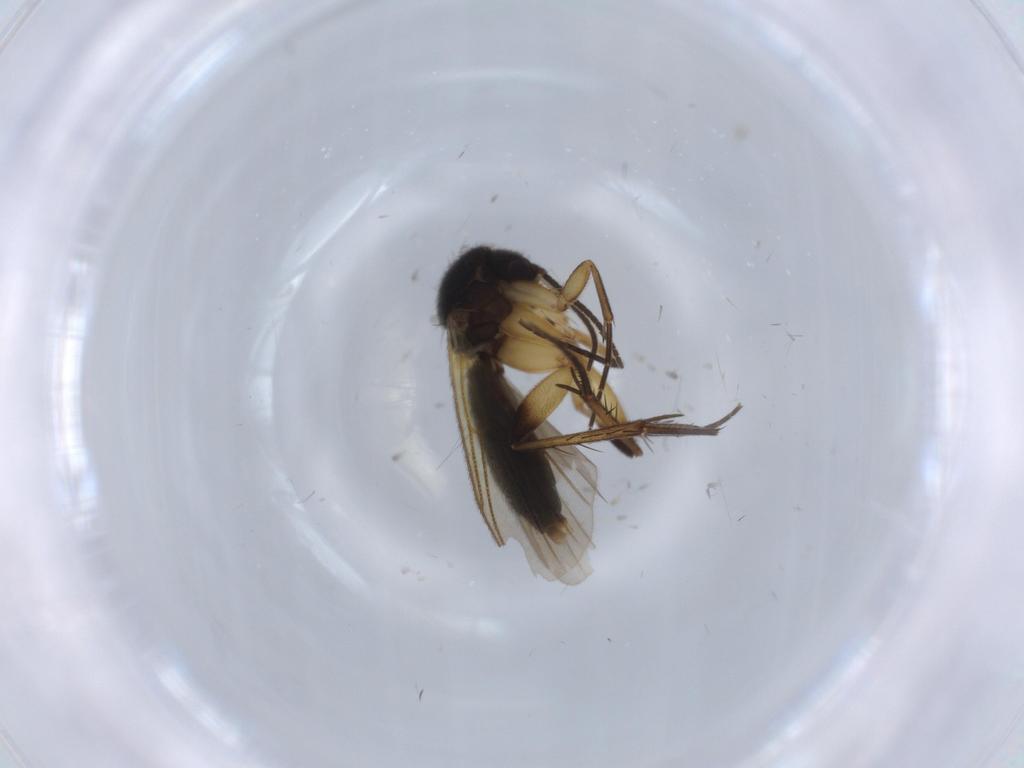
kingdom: Animalia
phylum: Arthropoda
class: Insecta
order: Diptera
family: Mycetophilidae
